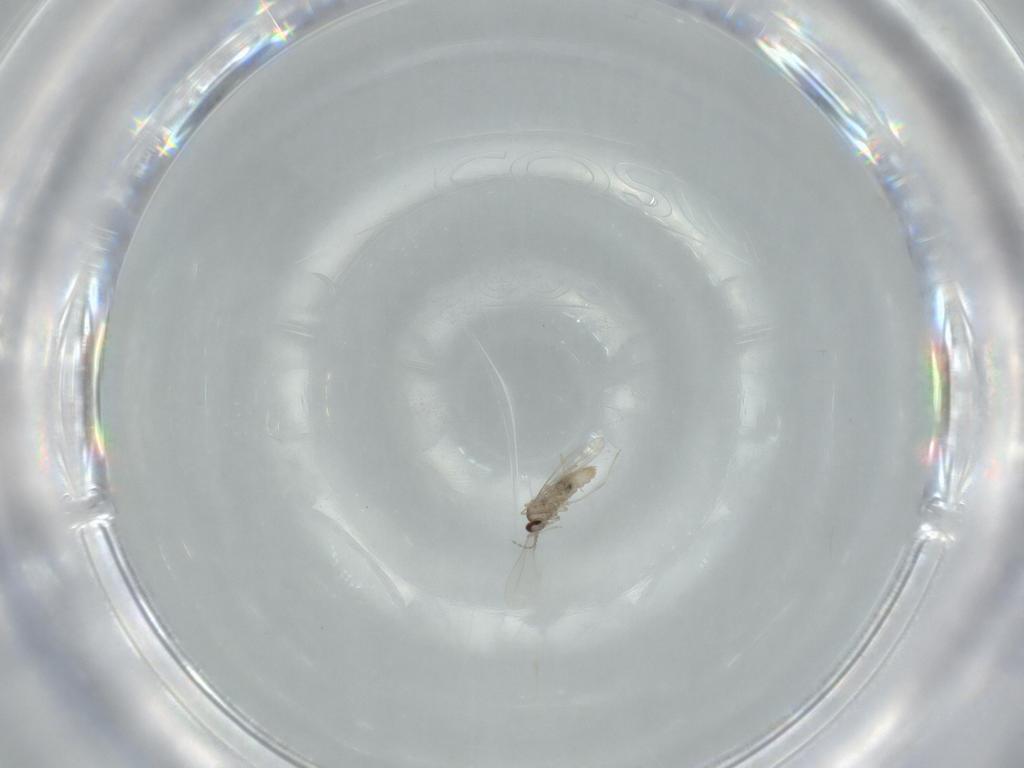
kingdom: Animalia
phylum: Arthropoda
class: Insecta
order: Diptera
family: Cecidomyiidae
